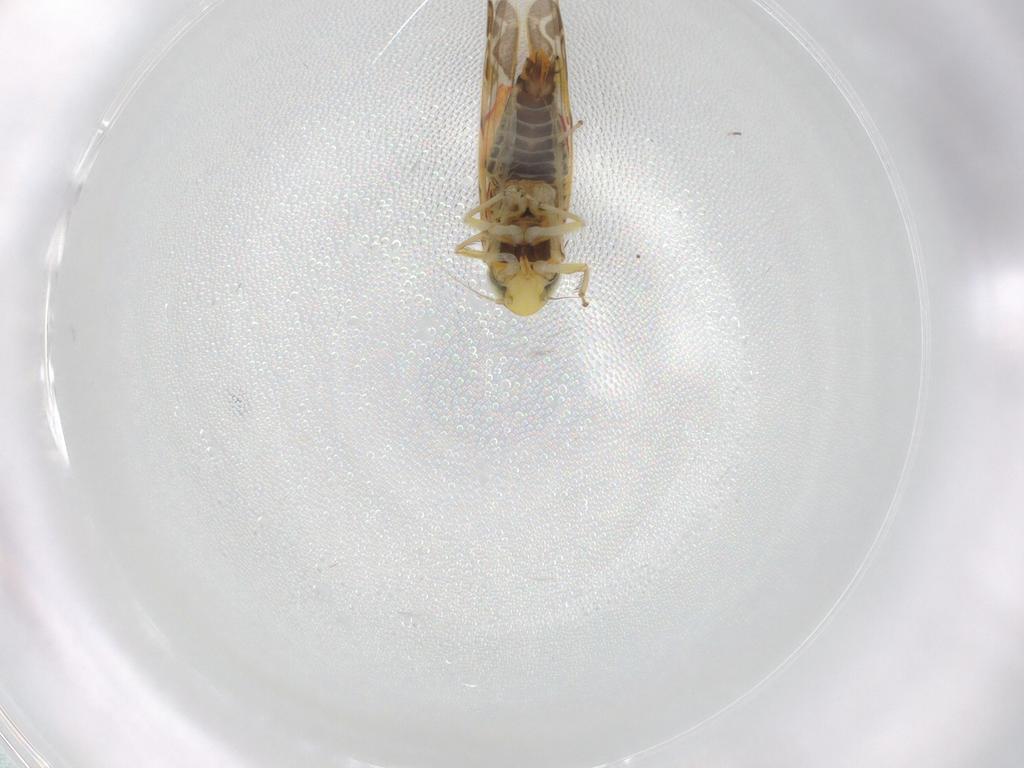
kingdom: Animalia
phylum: Arthropoda
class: Insecta
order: Hemiptera
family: Cicadellidae
